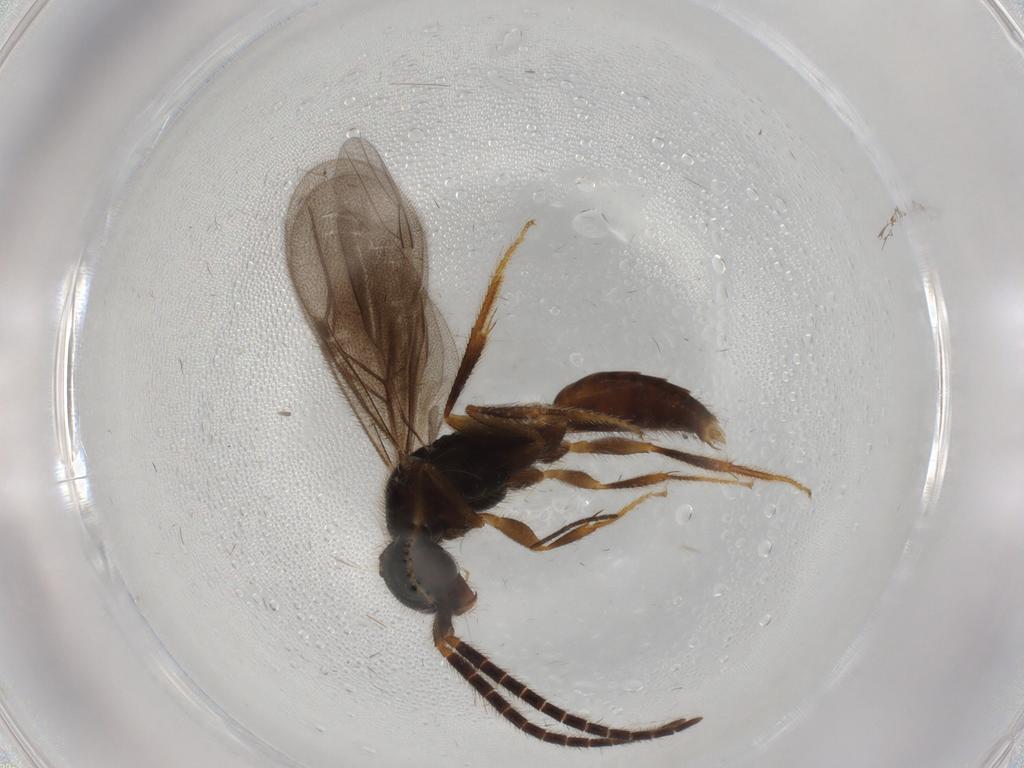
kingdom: Animalia
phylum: Arthropoda
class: Insecta
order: Hymenoptera
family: Bethylidae
